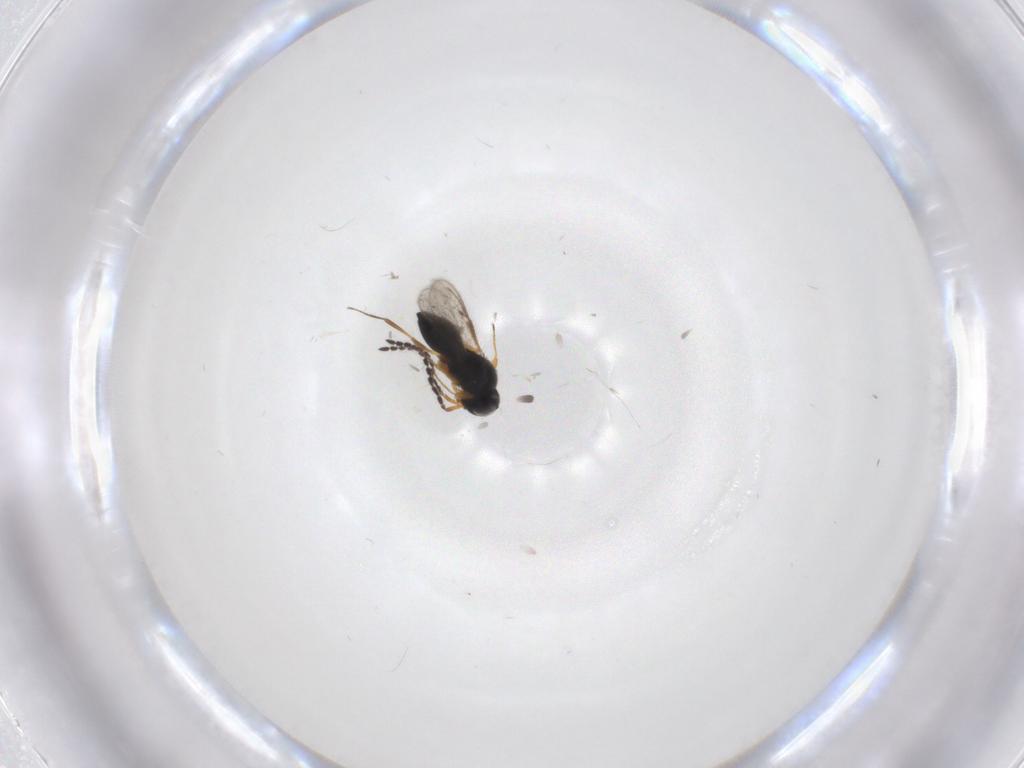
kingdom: Animalia
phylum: Arthropoda
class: Insecta
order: Hymenoptera
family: Scelionidae
